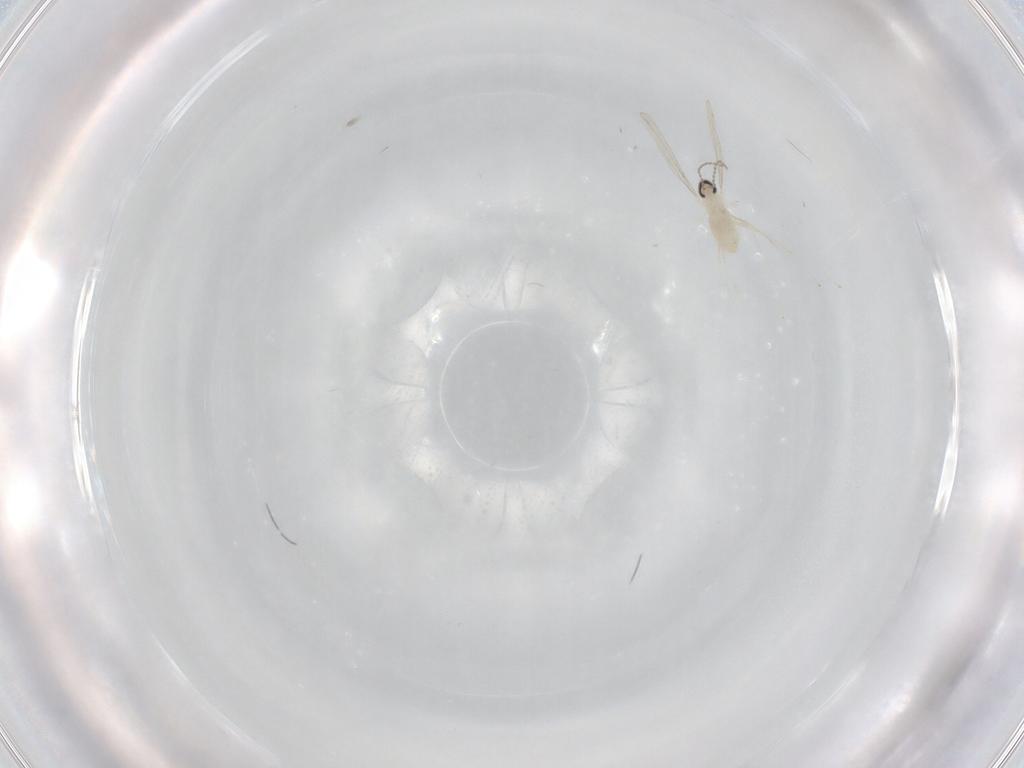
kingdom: Animalia
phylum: Arthropoda
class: Insecta
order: Diptera
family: Cecidomyiidae
